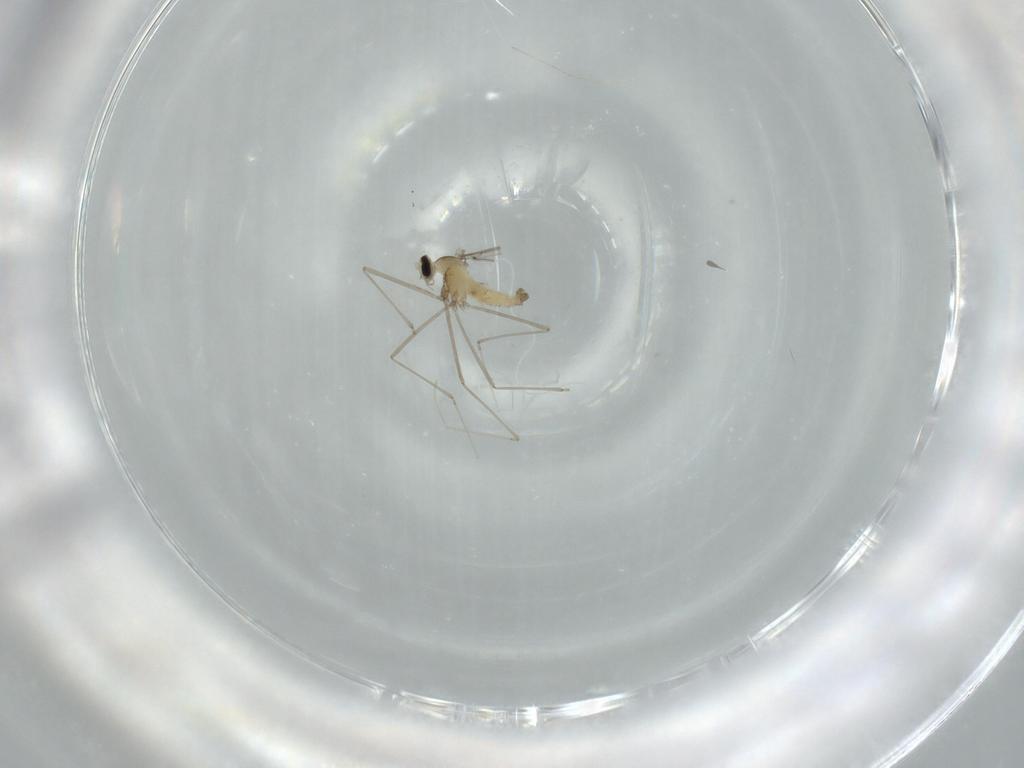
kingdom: Animalia
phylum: Arthropoda
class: Insecta
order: Diptera
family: Cecidomyiidae
